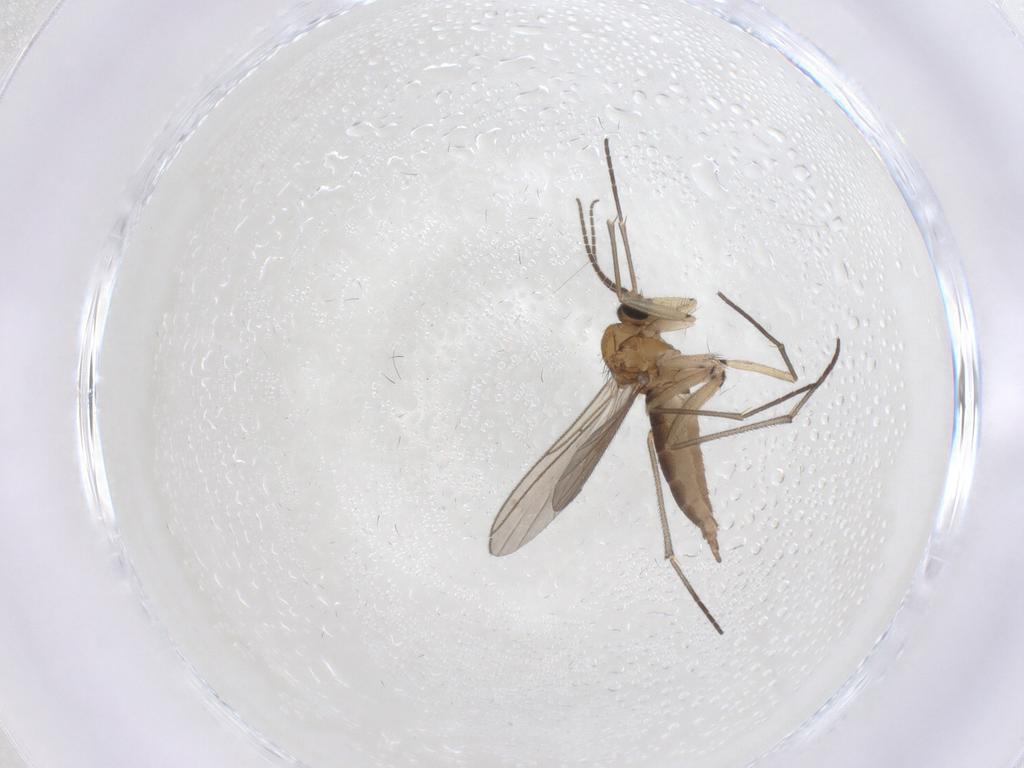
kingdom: Animalia
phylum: Arthropoda
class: Insecta
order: Diptera
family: Sciaridae
